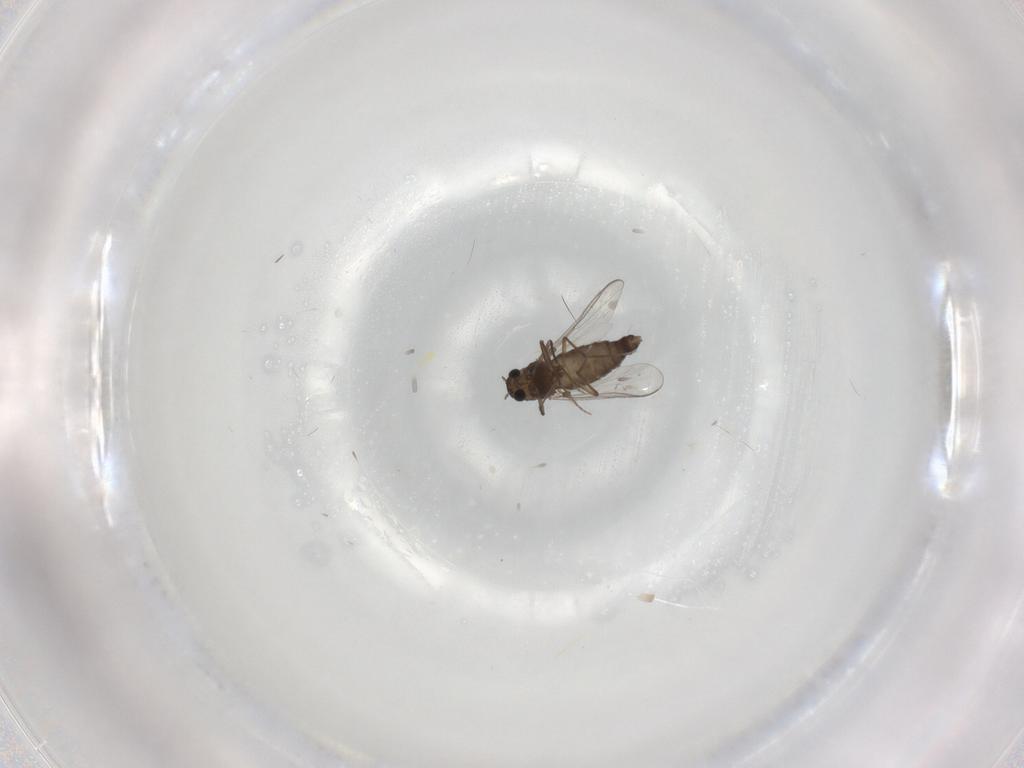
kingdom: Animalia
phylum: Arthropoda
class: Insecta
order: Diptera
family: Chironomidae
